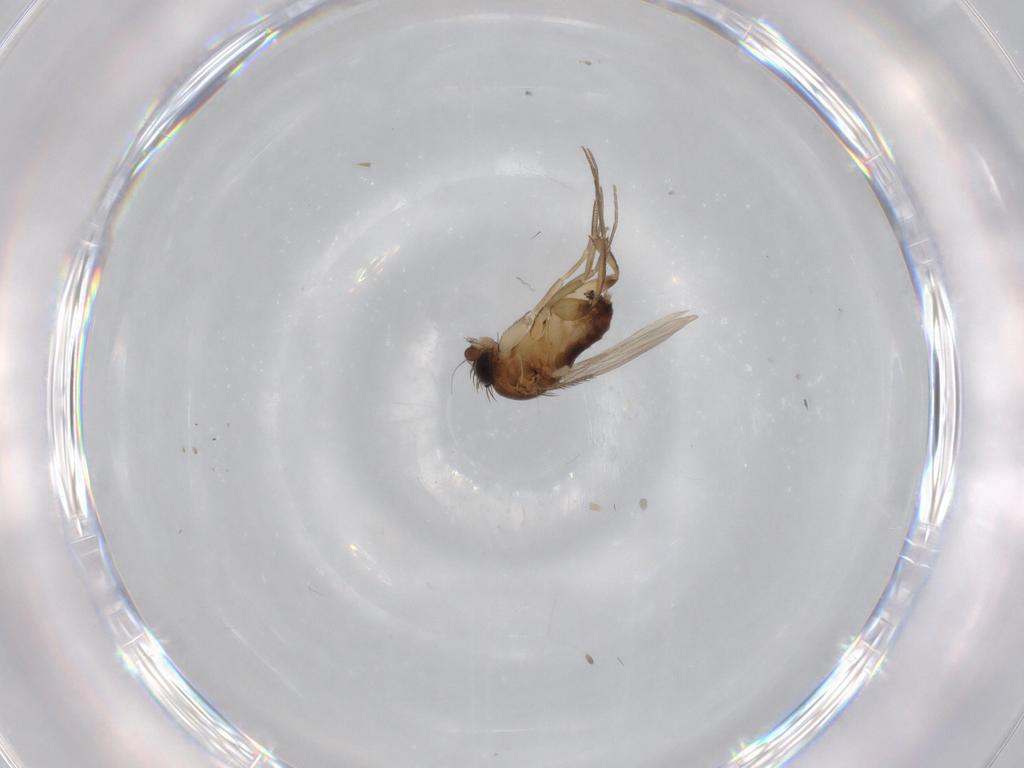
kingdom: Animalia
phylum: Arthropoda
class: Insecta
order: Diptera
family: Phoridae
